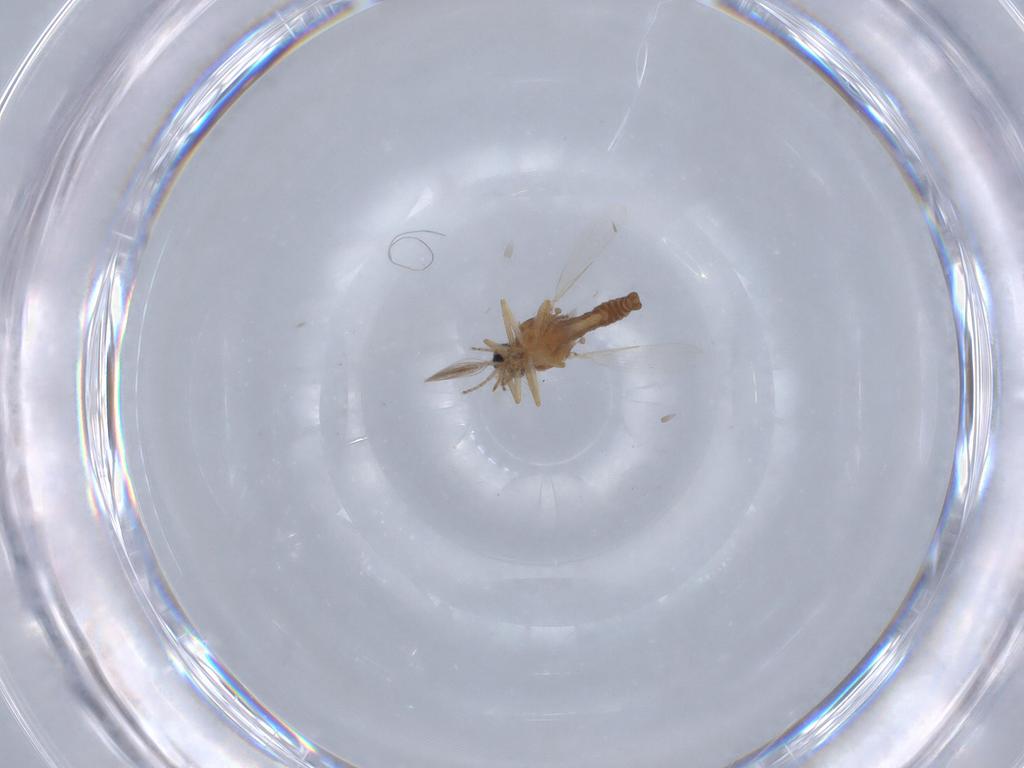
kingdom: Animalia
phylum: Arthropoda
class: Insecta
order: Diptera
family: Ceratopogonidae
